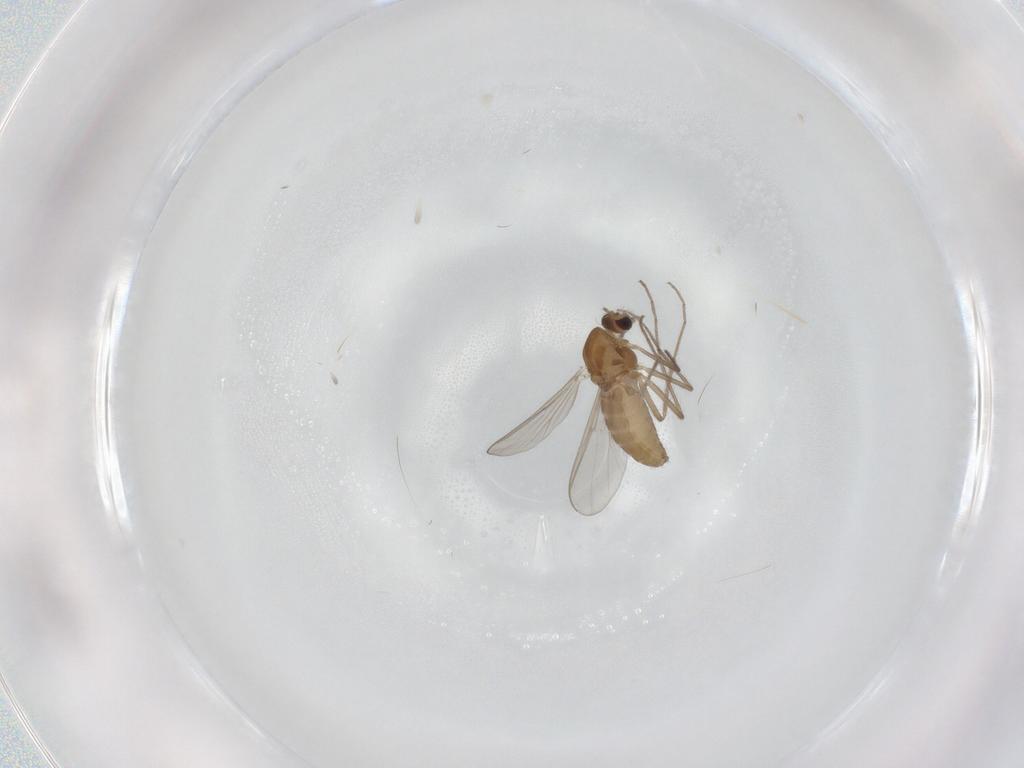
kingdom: Animalia
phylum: Arthropoda
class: Insecta
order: Diptera
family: Chironomidae
